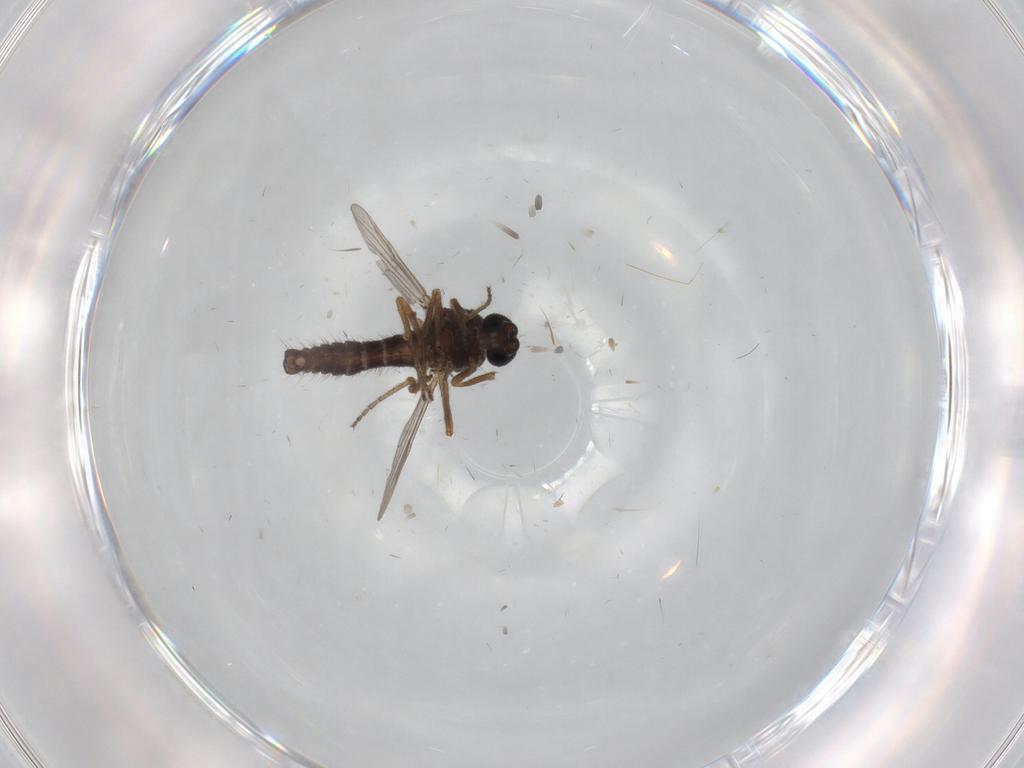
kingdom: Animalia
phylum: Arthropoda
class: Insecta
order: Diptera
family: Ceratopogonidae
